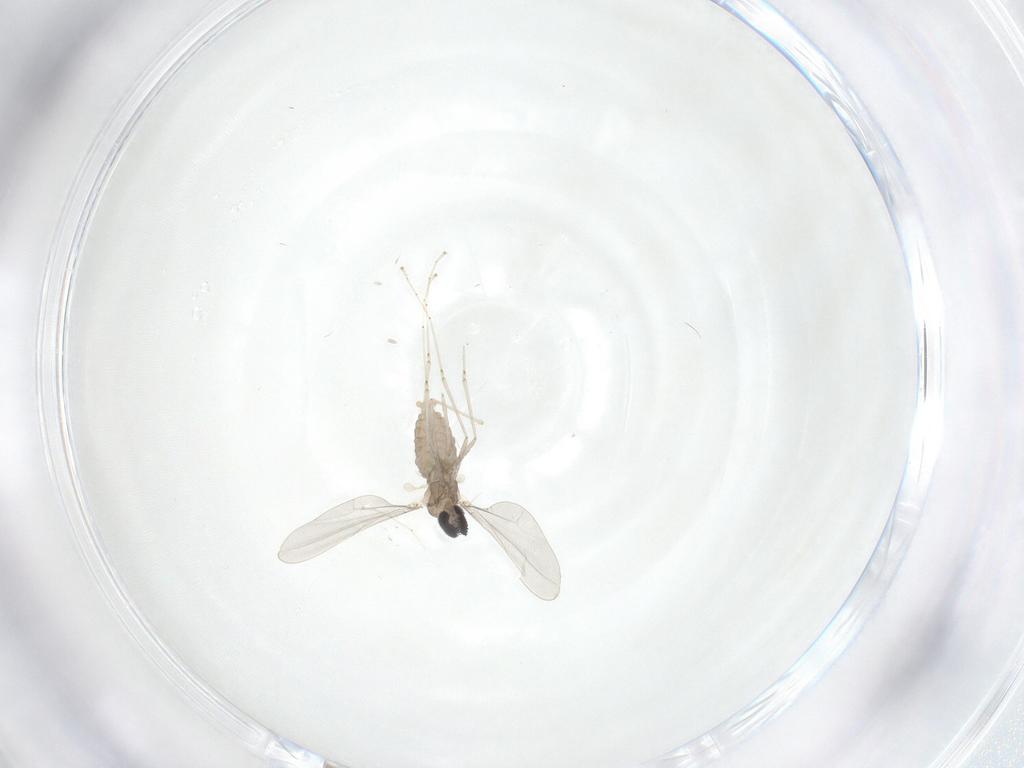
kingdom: Animalia
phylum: Arthropoda
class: Insecta
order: Diptera
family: Cecidomyiidae
